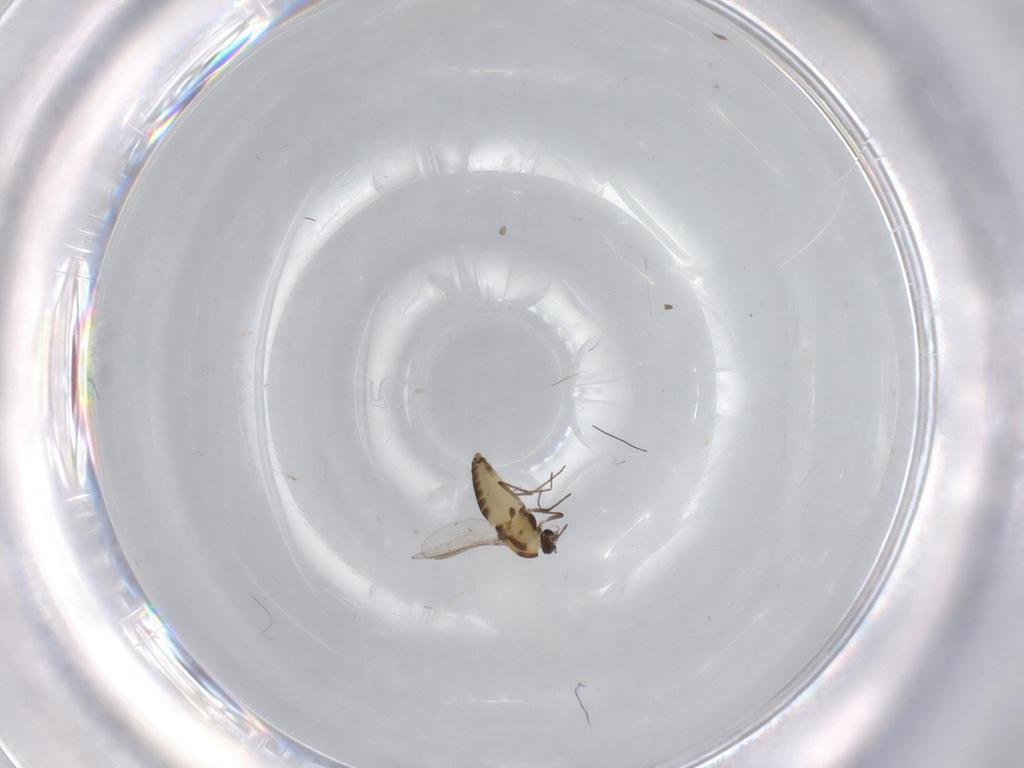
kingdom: Animalia
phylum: Arthropoda
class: Insecta
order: Diptera
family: Chironomidae
